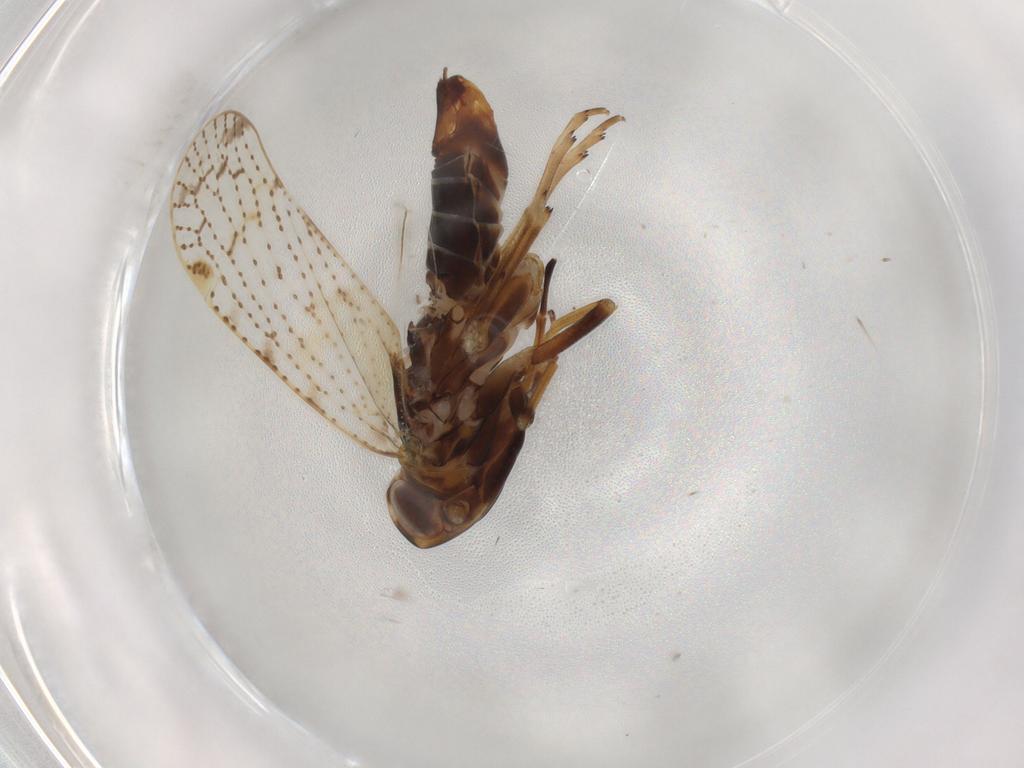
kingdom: Animalia
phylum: Arthropoda
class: Insecta
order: Hemiptera
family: Cixiidae
